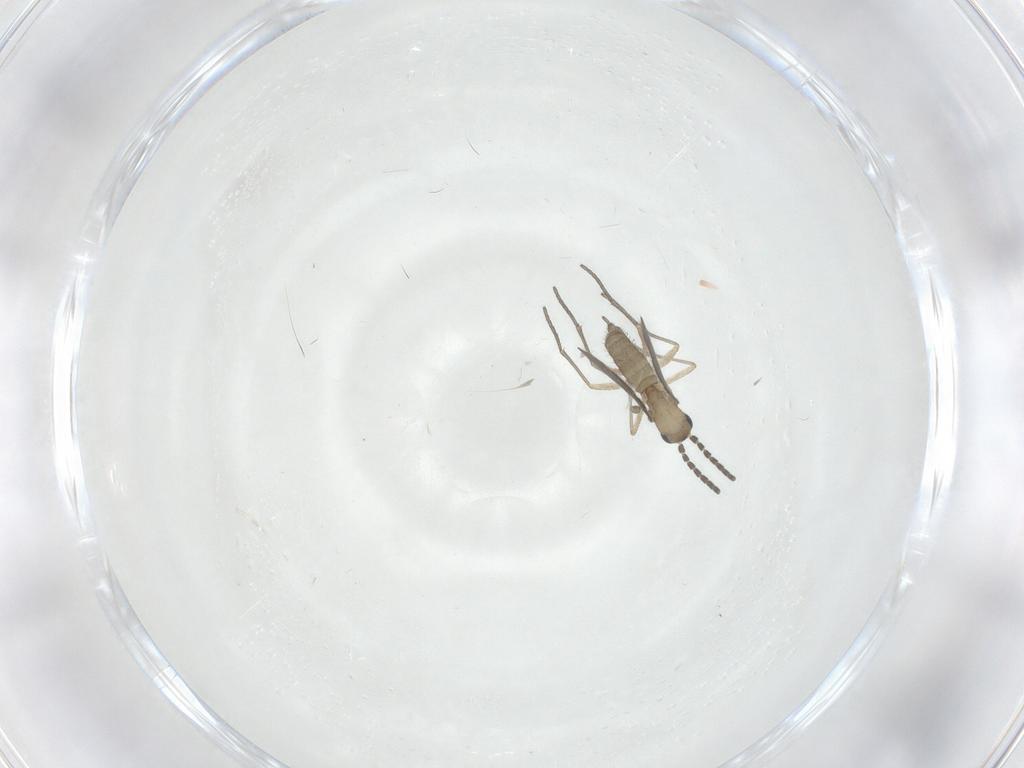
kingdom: Animalia
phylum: Arthropoda
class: Insecta
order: Diptera
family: Sciaridae
